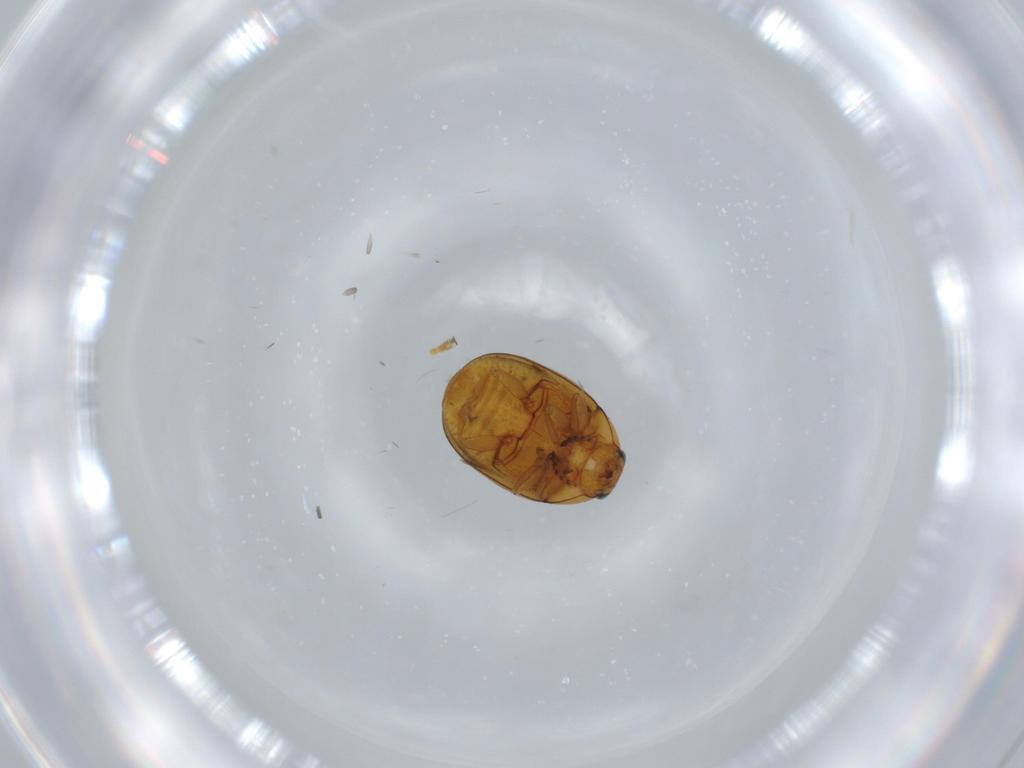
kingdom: Animalia
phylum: Arthropoda
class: Insecta
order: Coleoptera
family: Chrysomelidae
